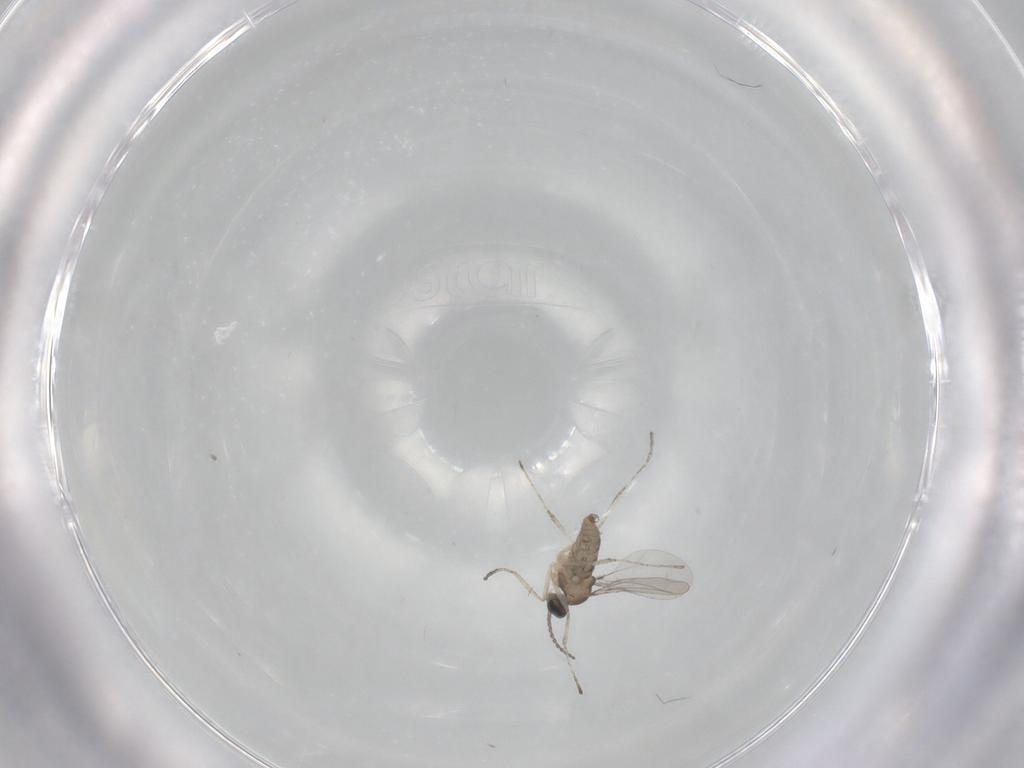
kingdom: Animalia
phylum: Arthropoda
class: Insecta
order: Diptera
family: Cecidomyiidae
